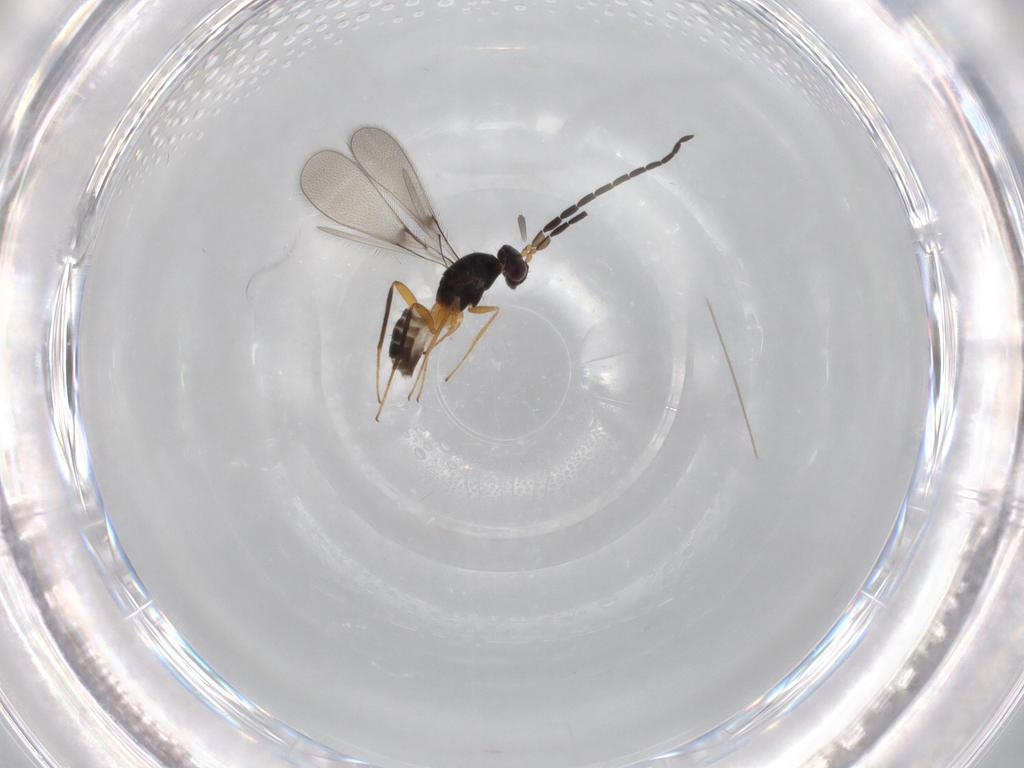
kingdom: Animalia
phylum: Arthropoda
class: Insecta
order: Hymenoptera
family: Mymaridae
